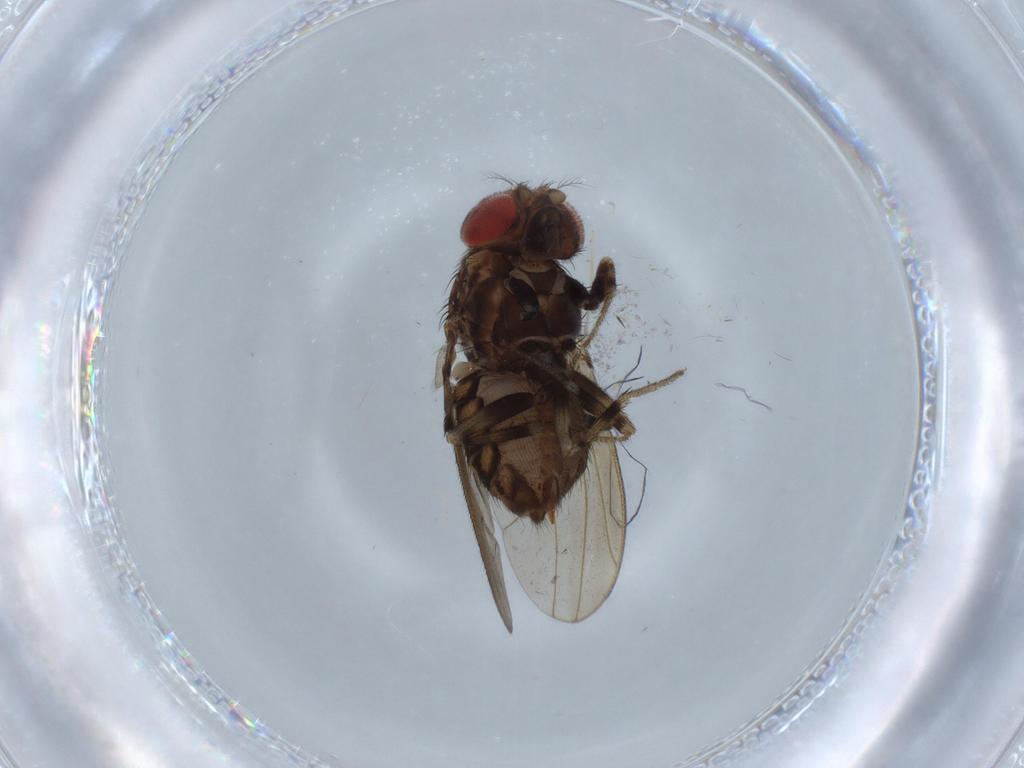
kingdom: Animalia
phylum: Arthropoda
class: Insecta
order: Diptera
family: Drosophilidae
